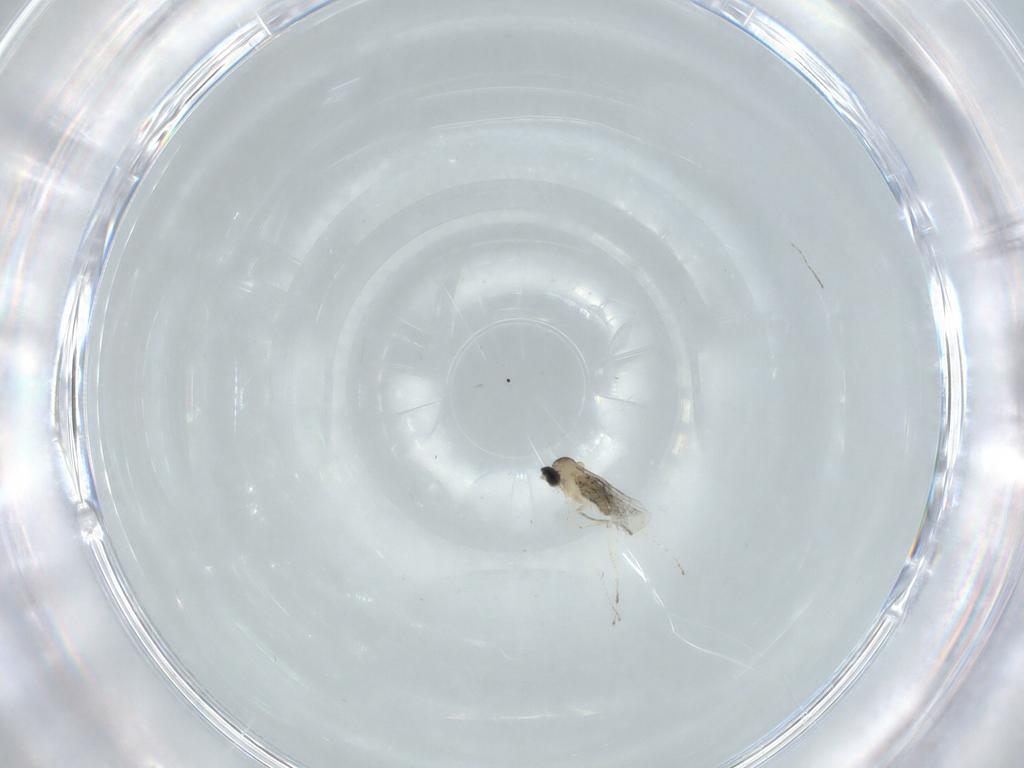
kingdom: Animalia
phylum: Arthropoda
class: Insecta
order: Diptera
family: Cecidomyiidae
